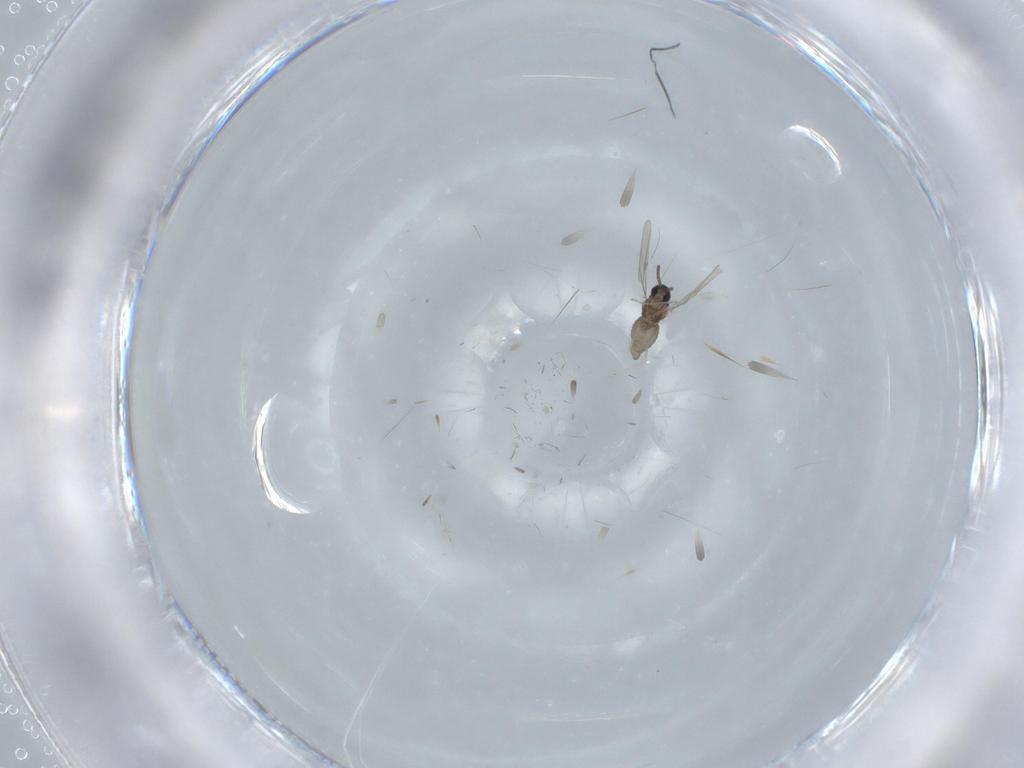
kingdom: Animalia
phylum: Arthropoda
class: Insecta
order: Diptera
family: Cecidomyiidae
